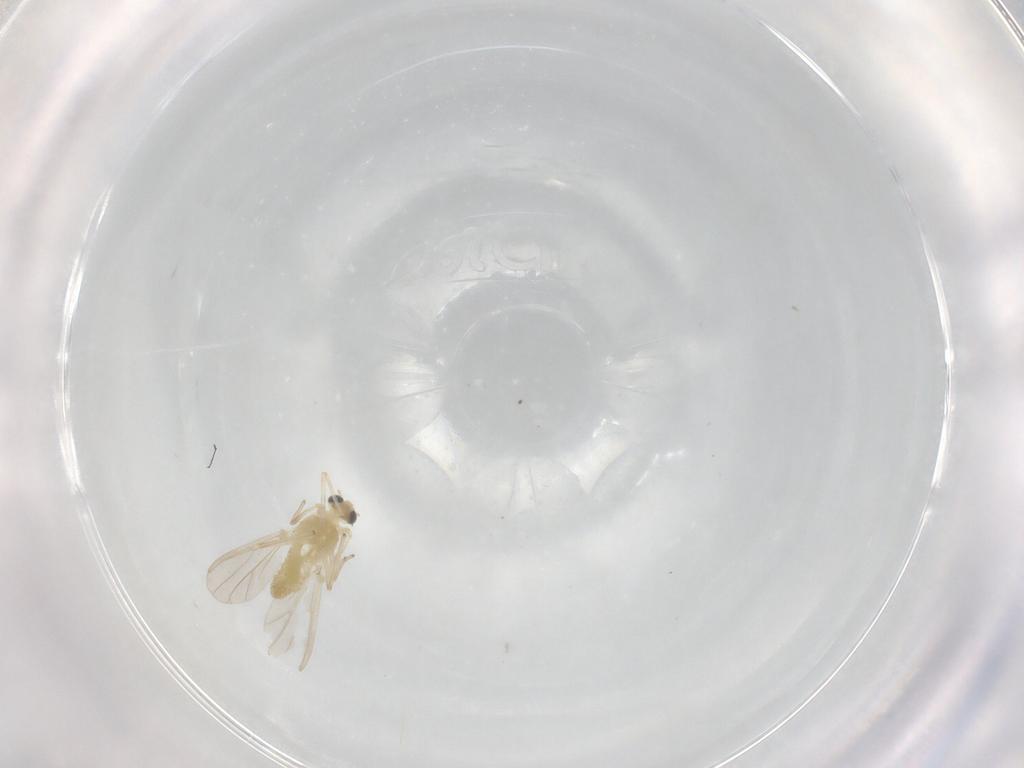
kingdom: Animalia
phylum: Arthropoda
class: Insecta
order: Diptera
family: Chironomidae
